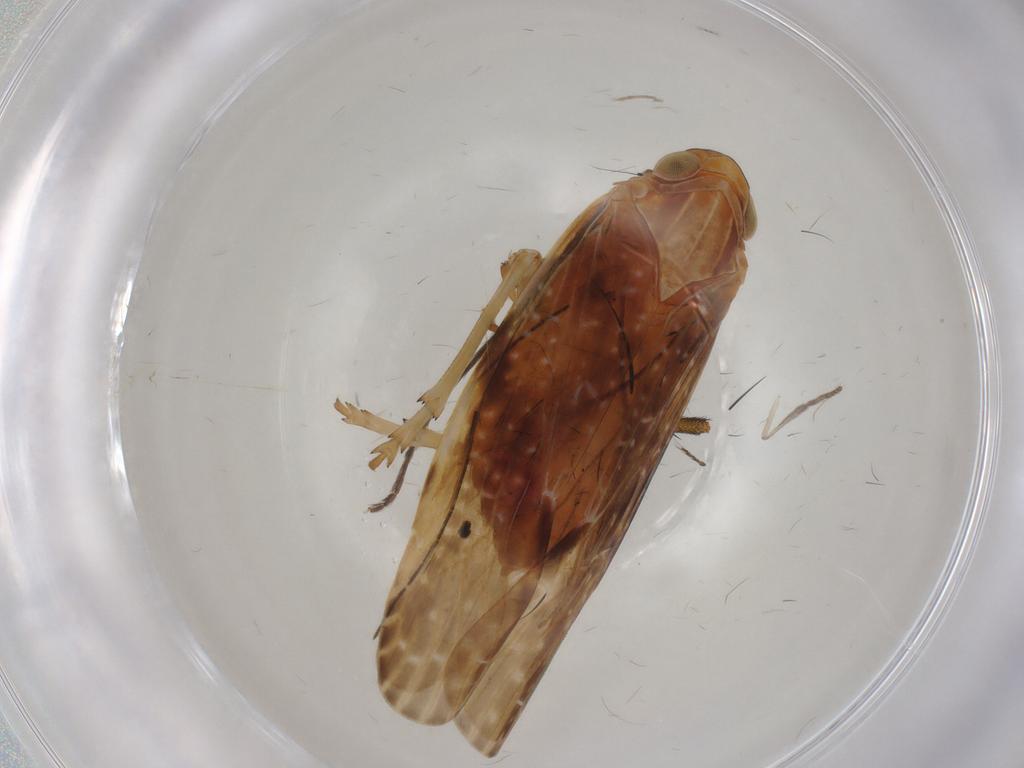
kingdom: Animalia
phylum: Arthropoda
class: Insecta
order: Hemiptera
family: Achilidae
